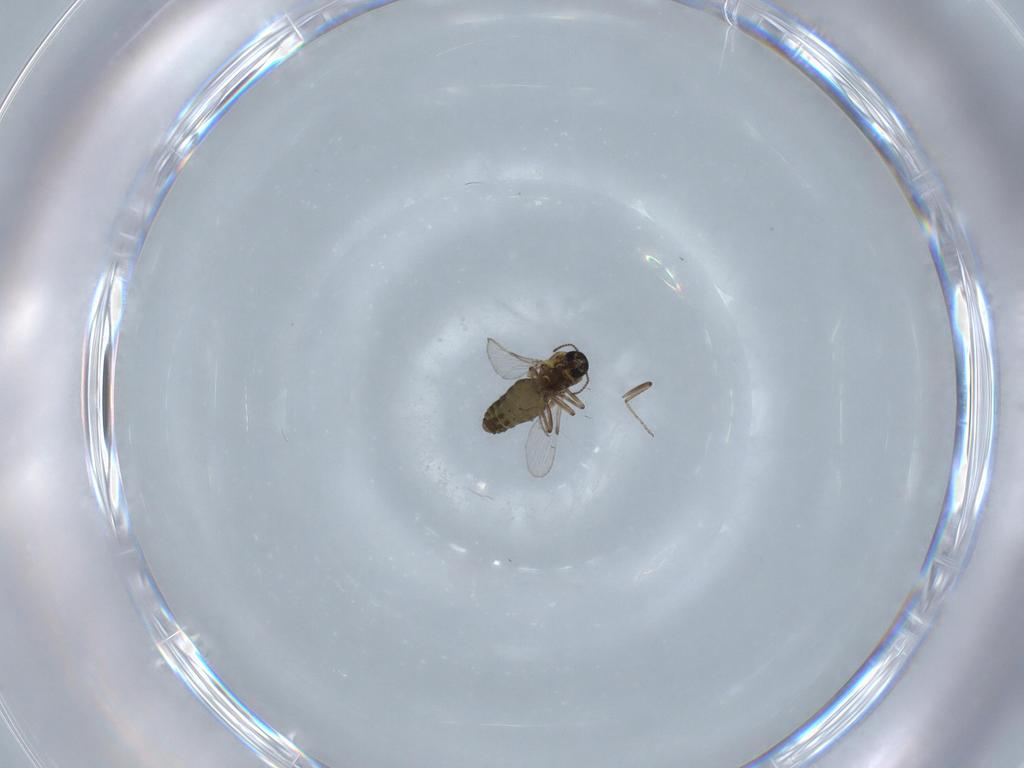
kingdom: Animalia
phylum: Arthropoda
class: Insecta
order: Diptera
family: Ceratopogonidae
